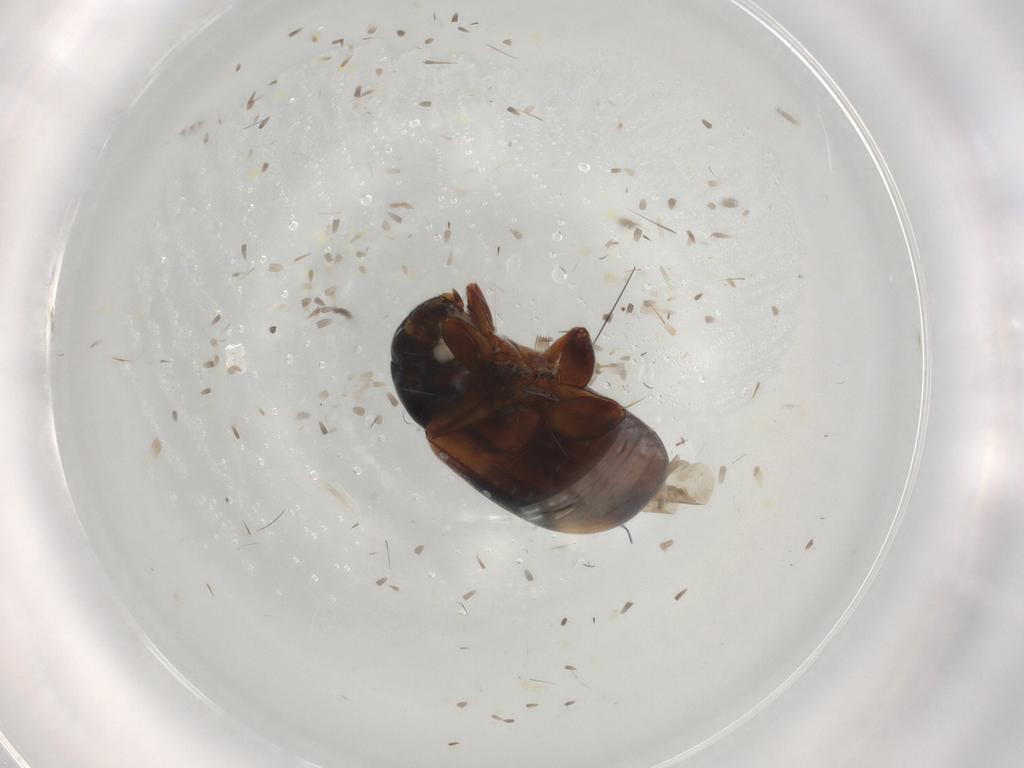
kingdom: Animalia
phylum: Arthropoda
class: Insecta
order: Coleoptera
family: Chrysomelidae
